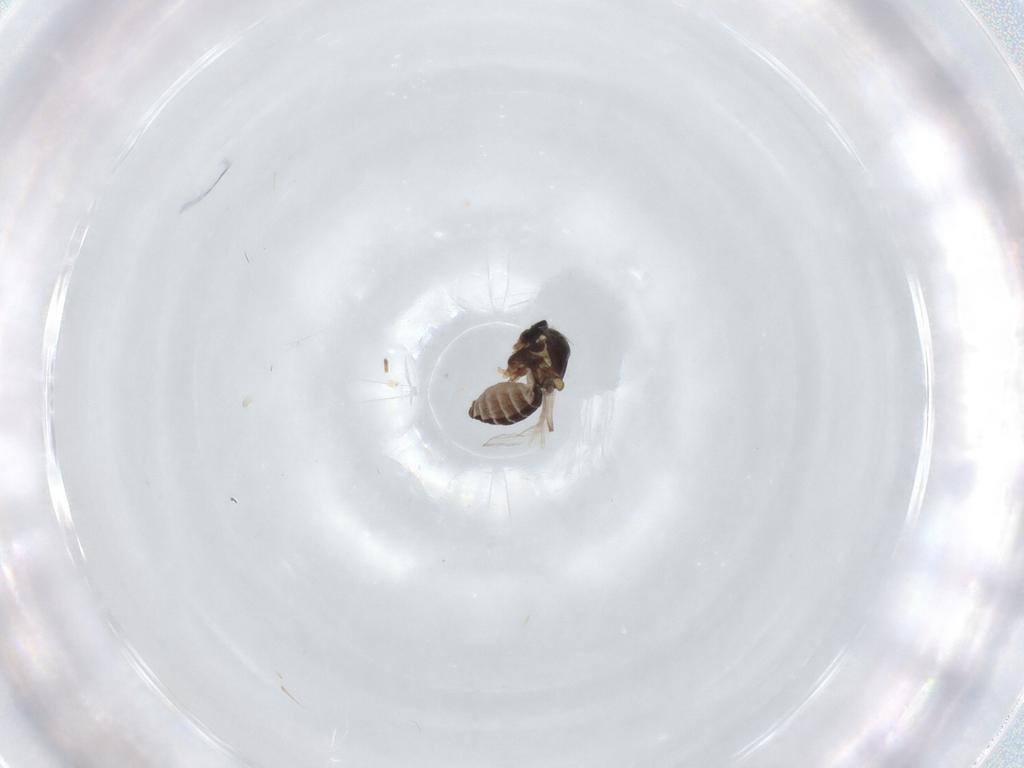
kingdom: Animalia
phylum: Arthropoda
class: Insecta
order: Diptera
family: Ceratopogonidae
